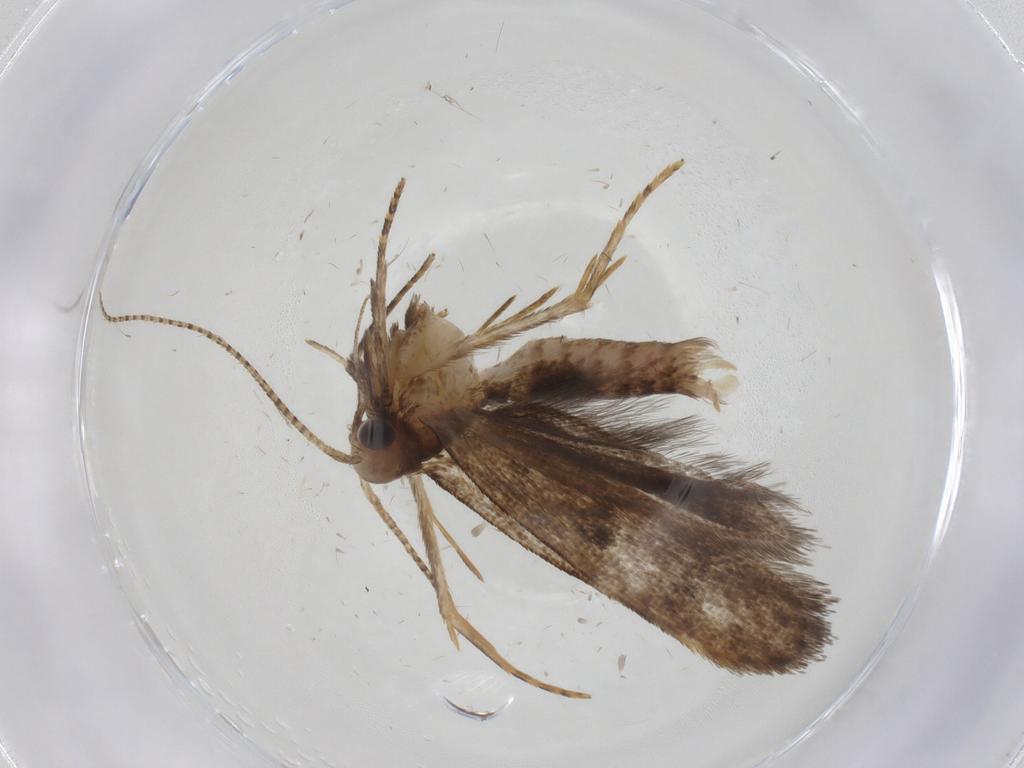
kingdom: Animalia
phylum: Arthropoda
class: Insecta
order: Lepidoptera
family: Gelechiidae
